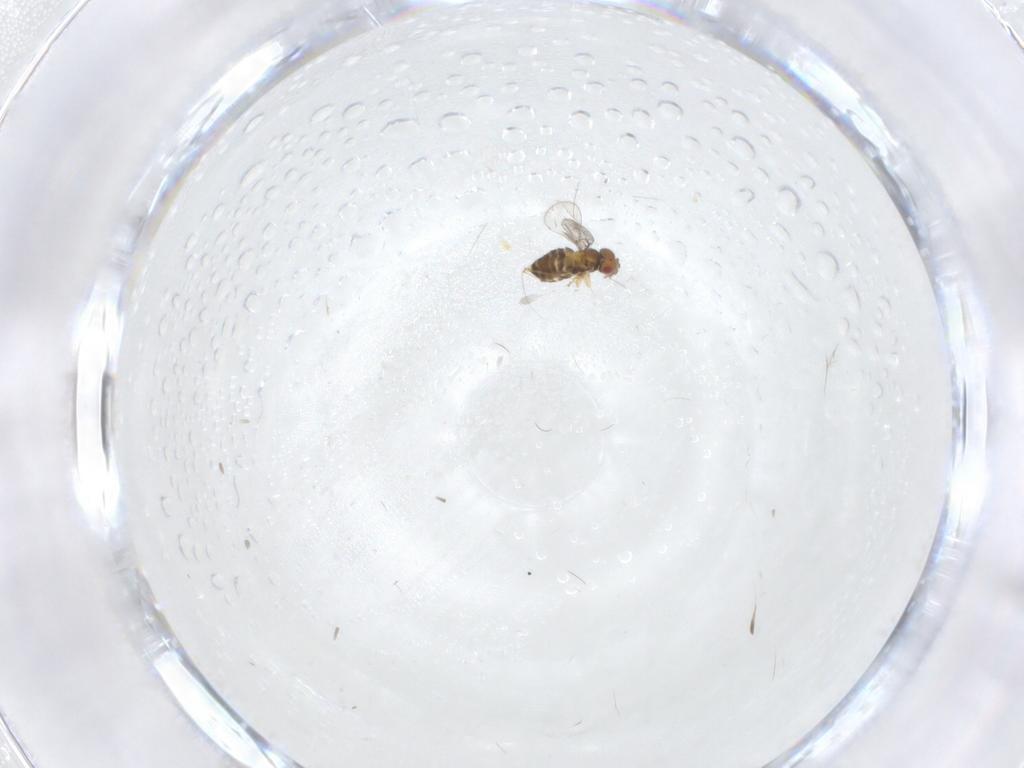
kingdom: Animalia
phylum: Arthropoda
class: Insecta
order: Hymenoptera
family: Trichogrammatidae
